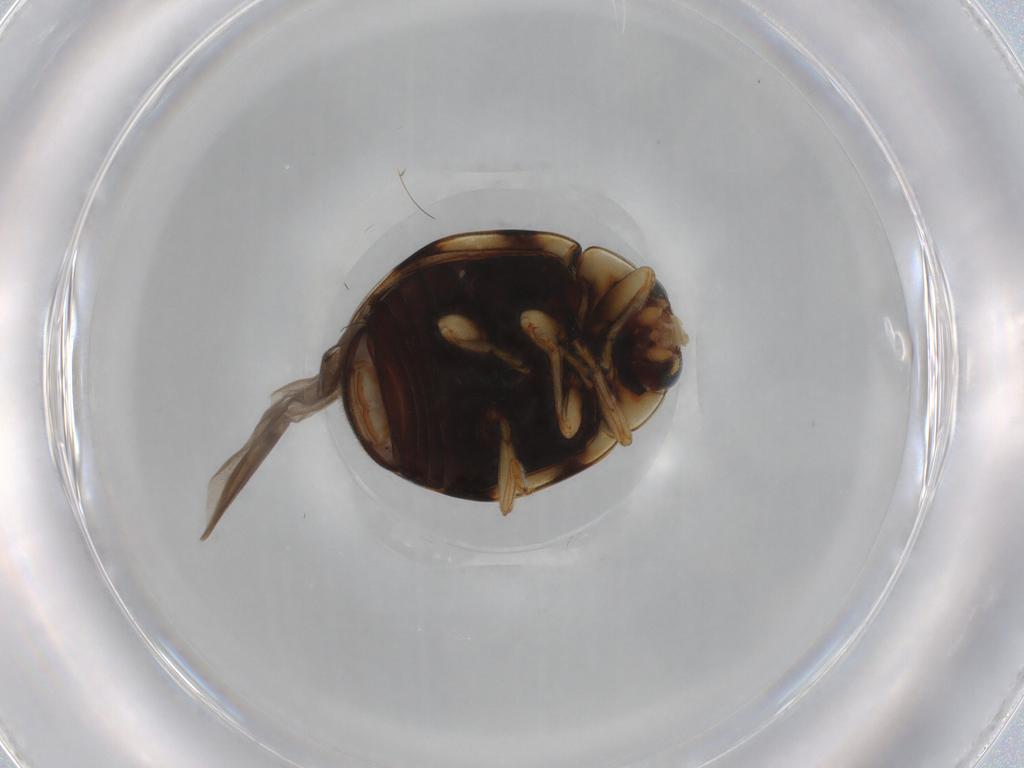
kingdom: Animalia
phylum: Arthropoda
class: Insecta
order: Coleoptera
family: Coccinellidae
